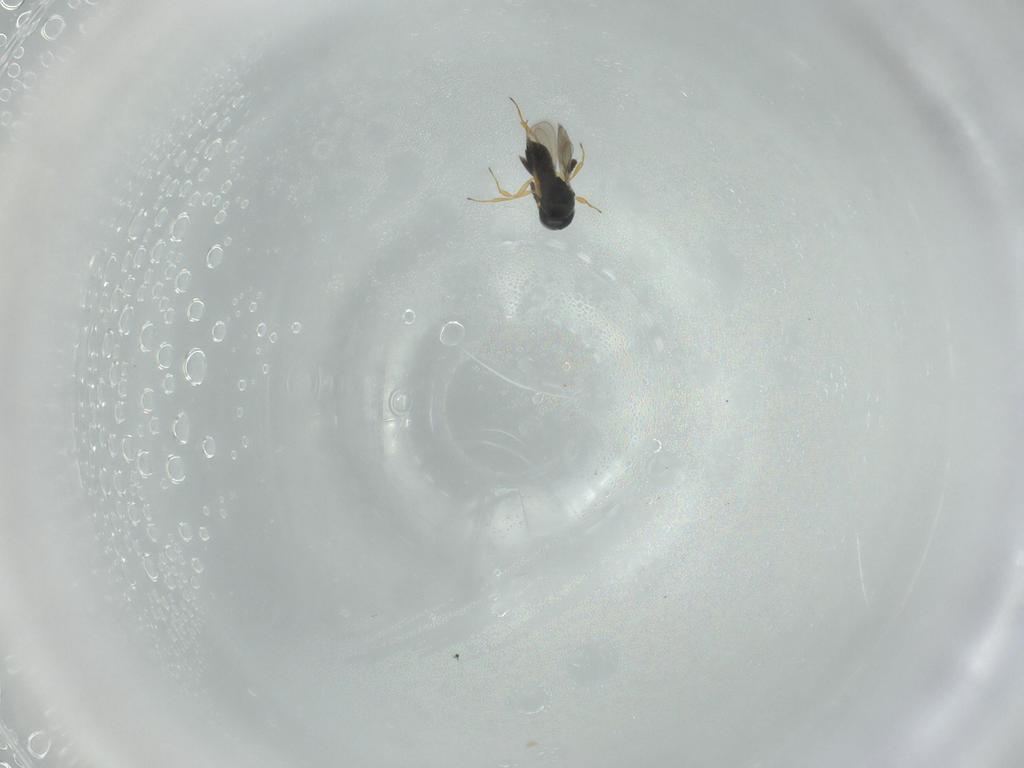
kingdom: Animalia
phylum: Arthropoda
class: Insecta
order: Hymenoptera
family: Scelionidae
